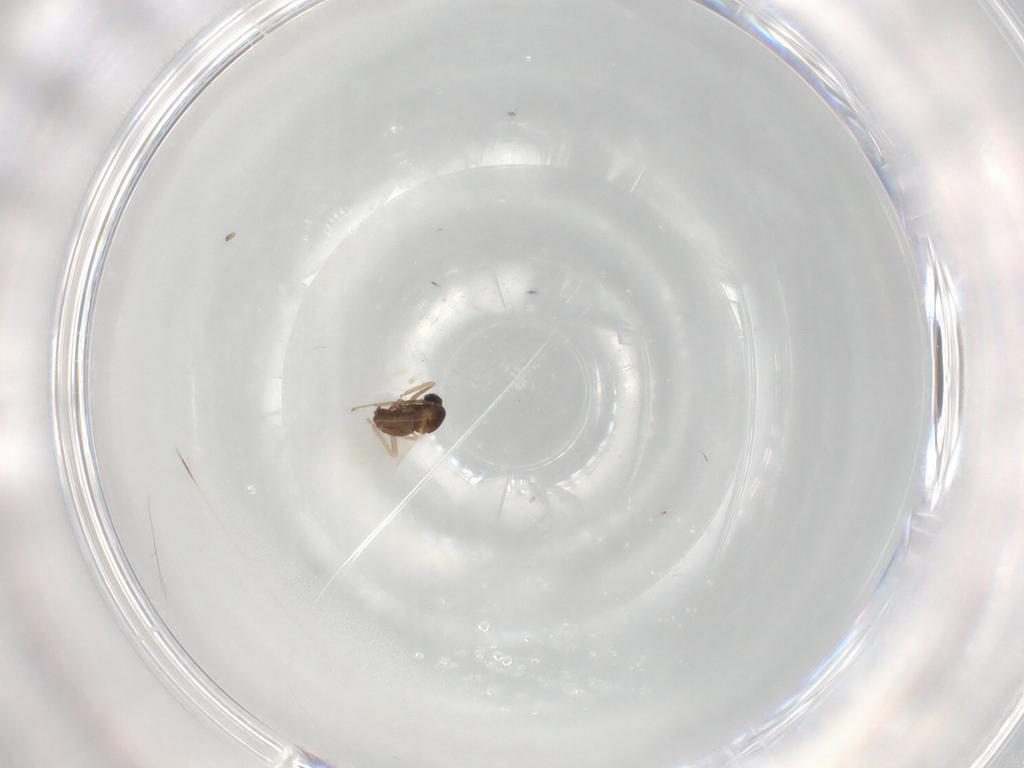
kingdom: Animalia
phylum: Arthropoda
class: Insecta
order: Diptera
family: Cecidomyiidae
